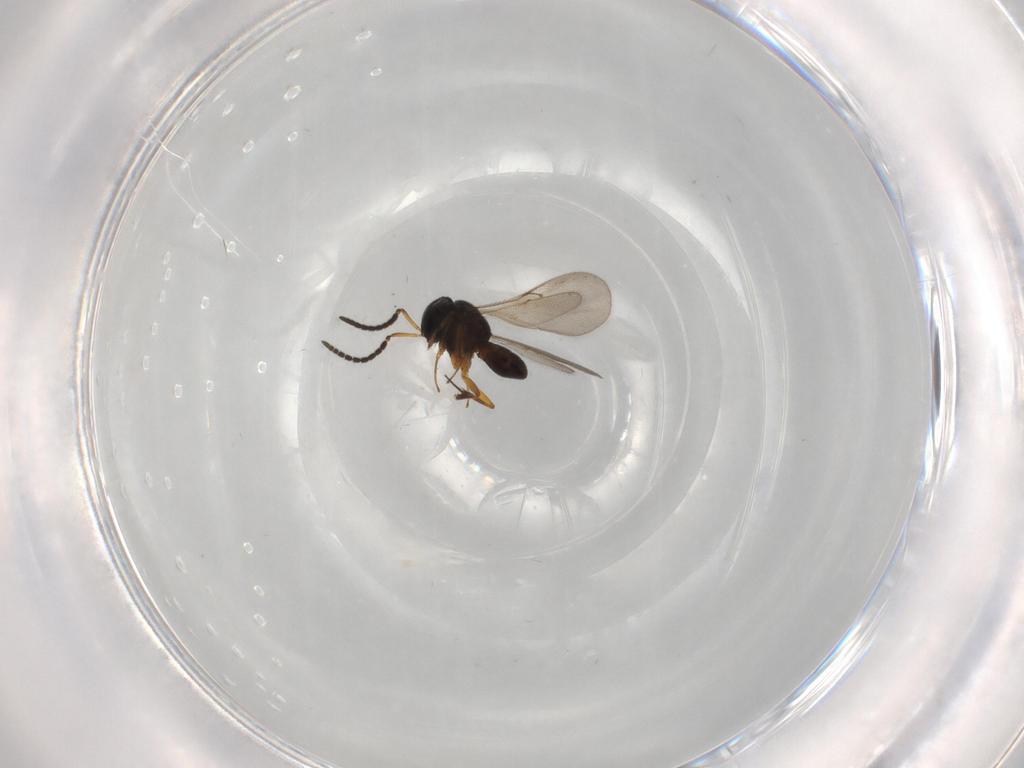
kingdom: Animalia
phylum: Arthropoda
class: Insecta
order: Hymenoptera
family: Scelionidae
